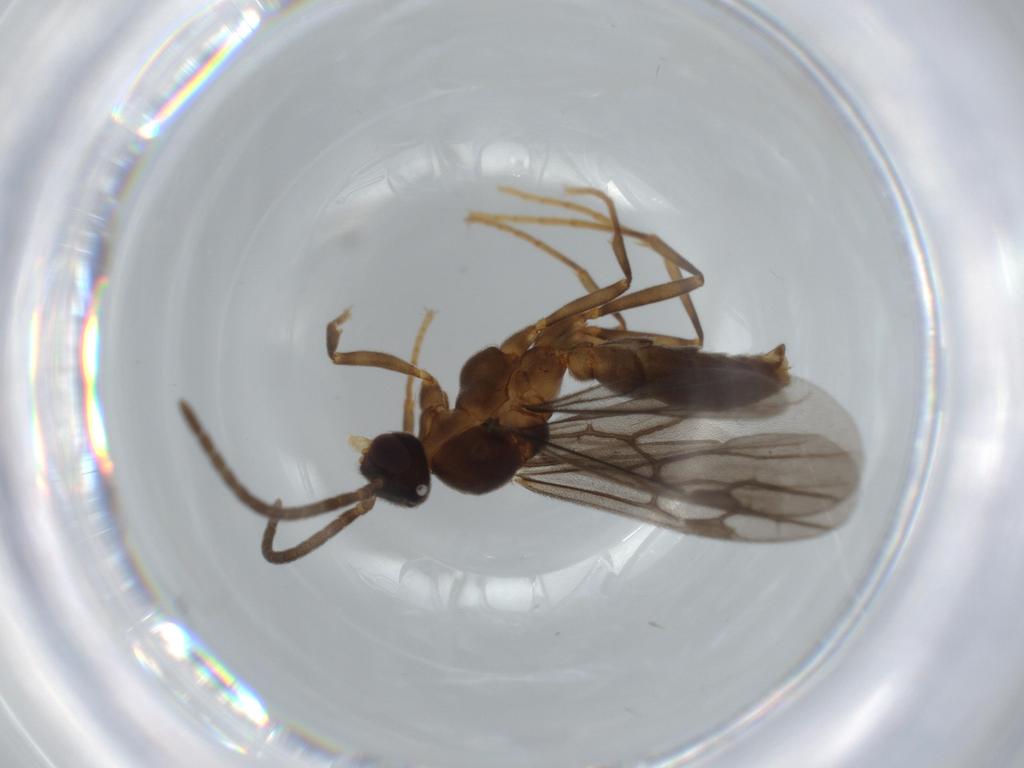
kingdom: Animalia
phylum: Arthropoda
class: Insecta
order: Hymenoptera
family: Formicidae
